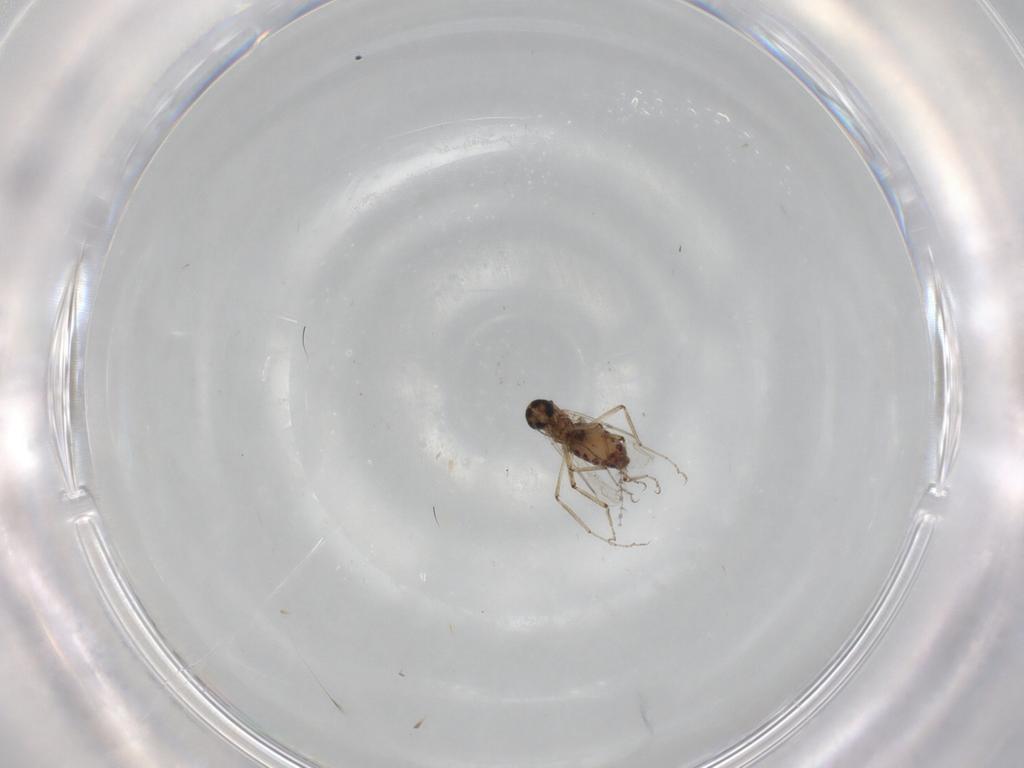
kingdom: Animalia
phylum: Arthropoda
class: Insecta
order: Diptera
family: Ceratopogonidae
